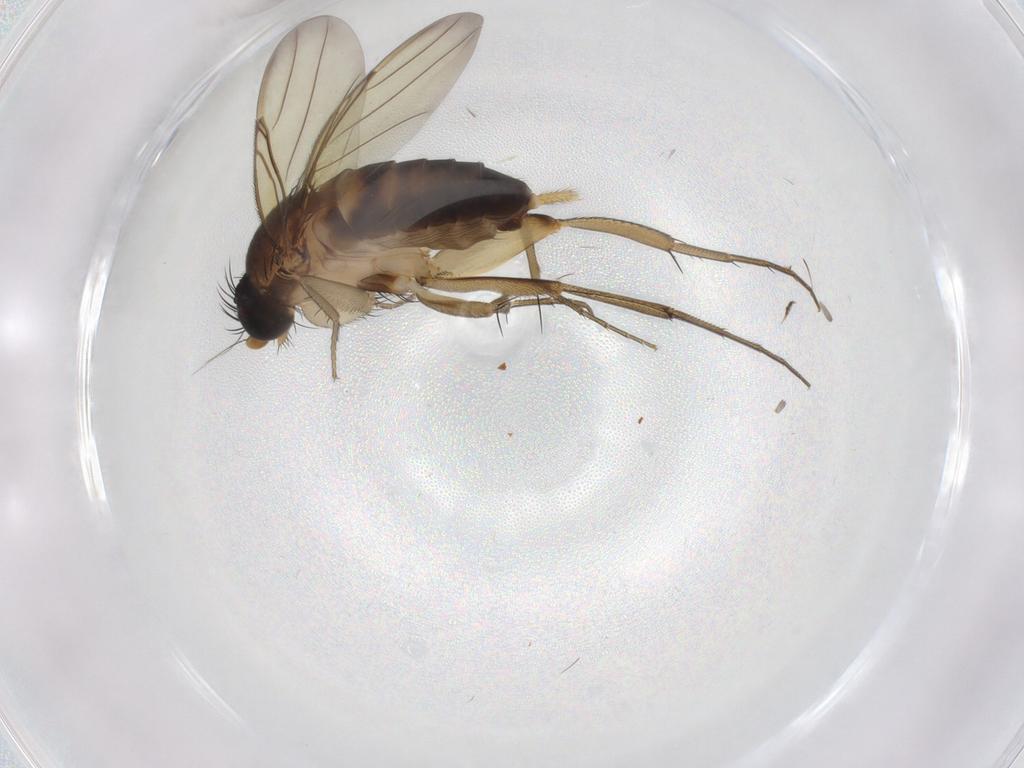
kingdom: Animalia
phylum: Arthropoda
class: Insecta
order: Diptera
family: Phoridae
